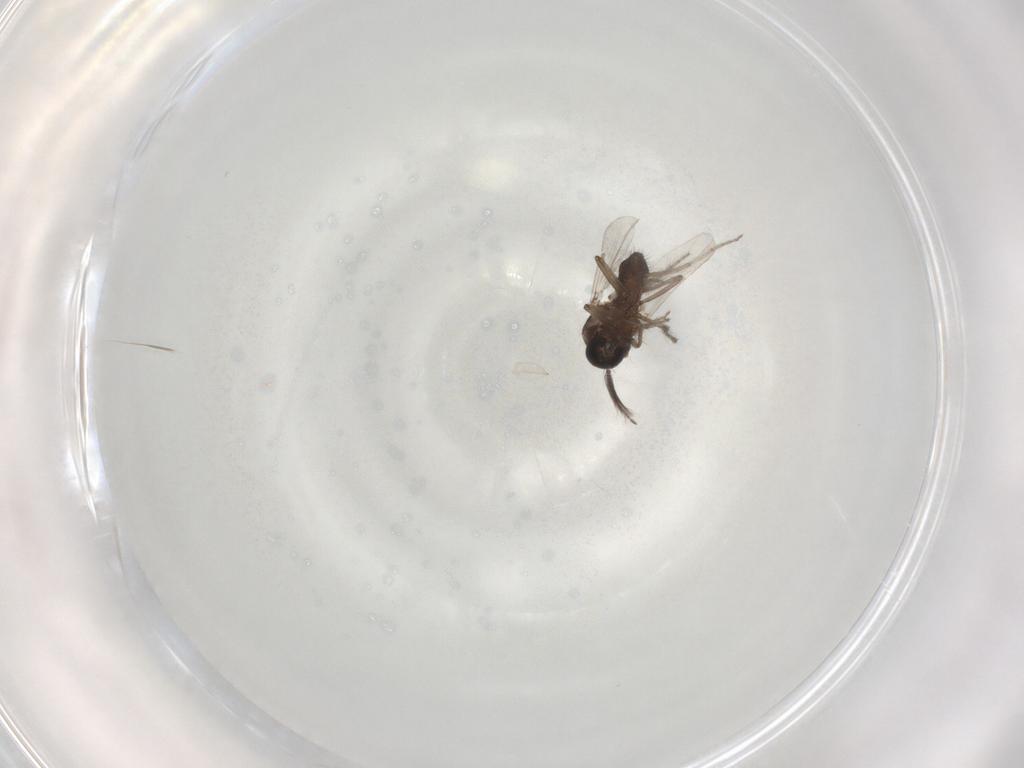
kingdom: Animalia
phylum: Arthropoda
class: Insecta
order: Diptera
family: Ceratopogonidae
